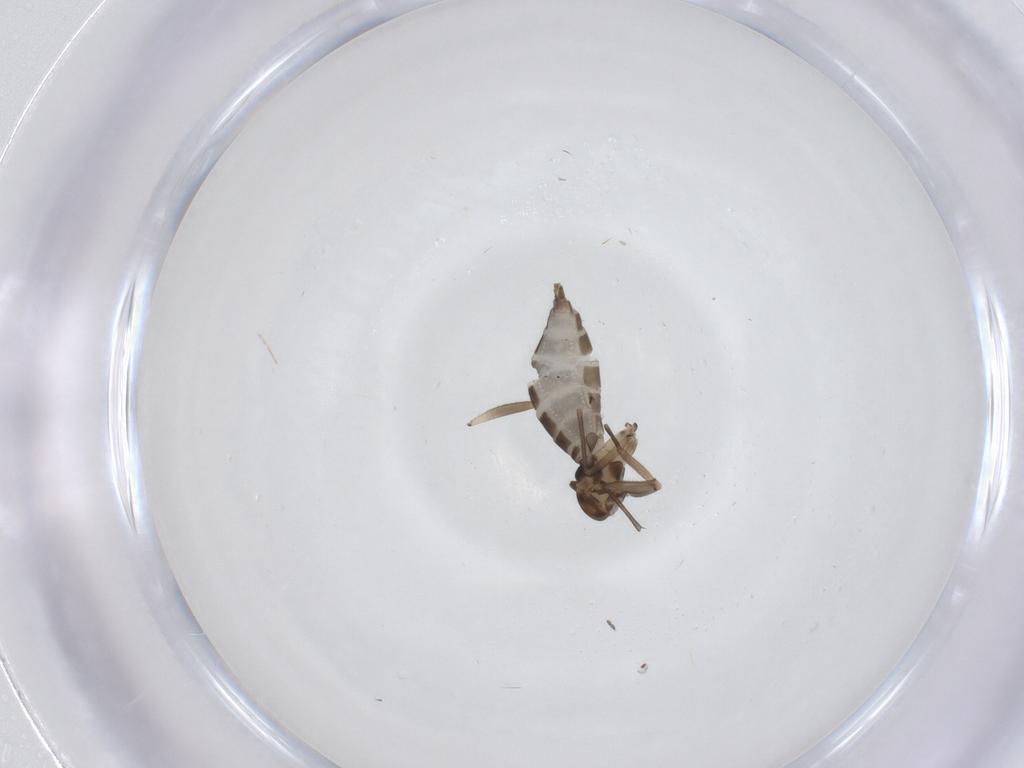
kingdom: Animalia
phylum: Arthropoda
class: Insecta
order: Diptera
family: Sciaridae
